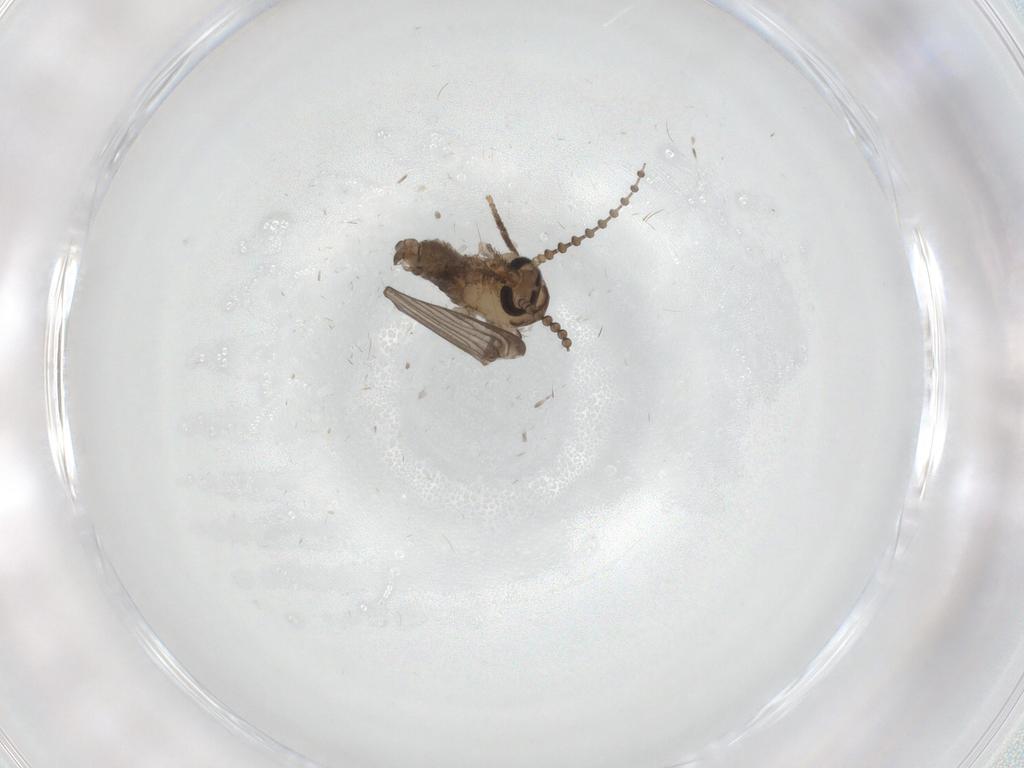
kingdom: Animalia
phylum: Arthropoda
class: Insecta
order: Diptera
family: Psychodidae
